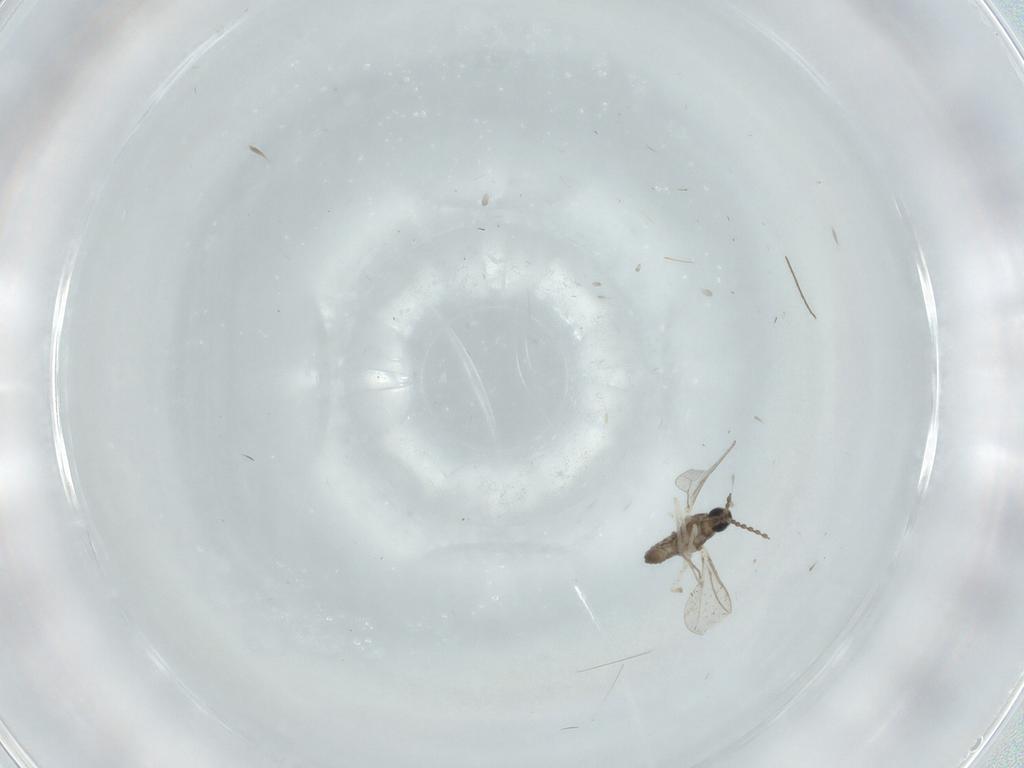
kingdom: Animalia
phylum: Arthropoda
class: Insecta
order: Diptera
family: Cecidomyiidae
